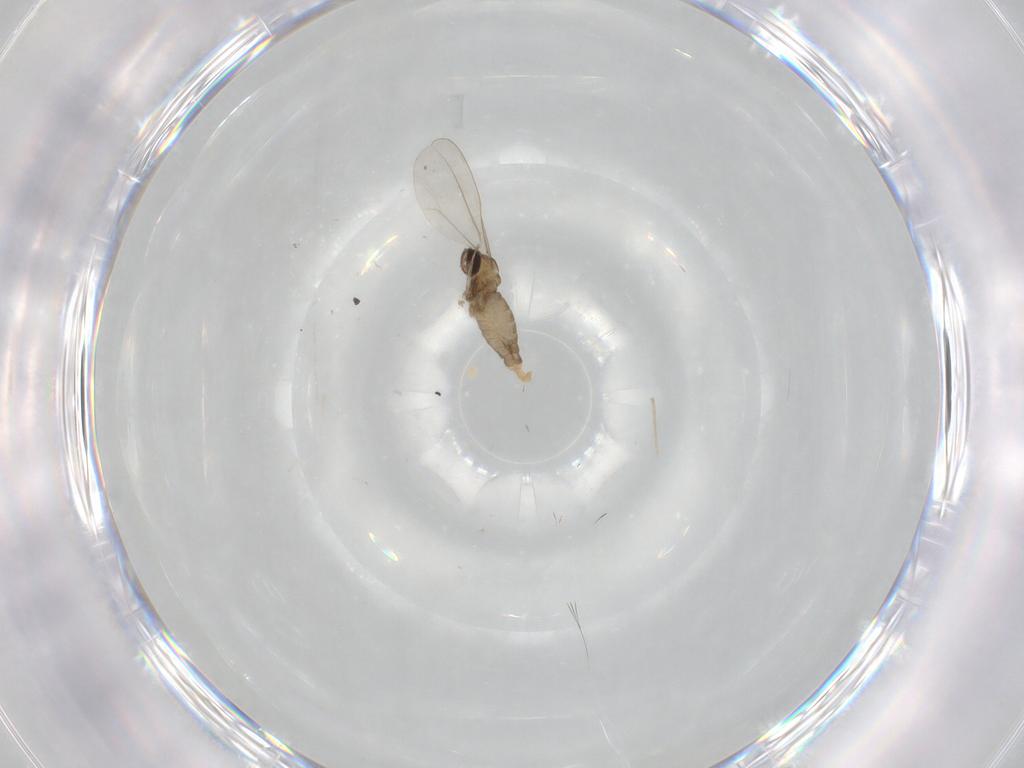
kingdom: Animalia
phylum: Arthropoda
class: Insecta
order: Diptera
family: Cecidomyiidae
